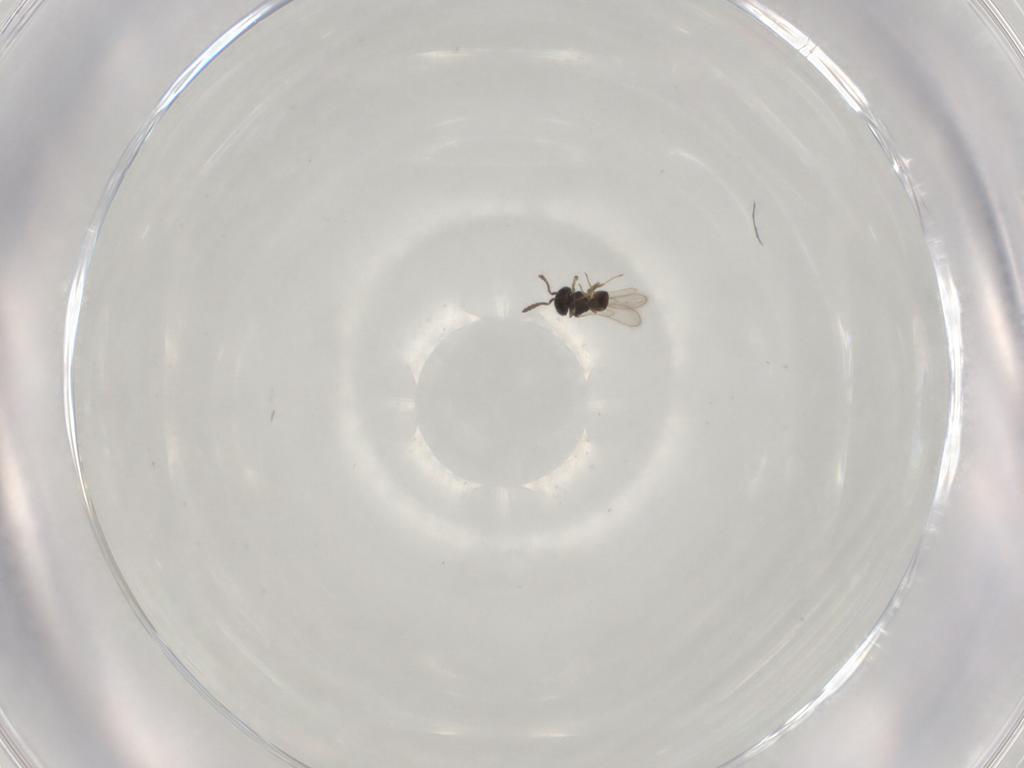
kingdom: Animalia
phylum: Arthropoda
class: Insecta
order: Hymenoptera
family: Scelionidae
